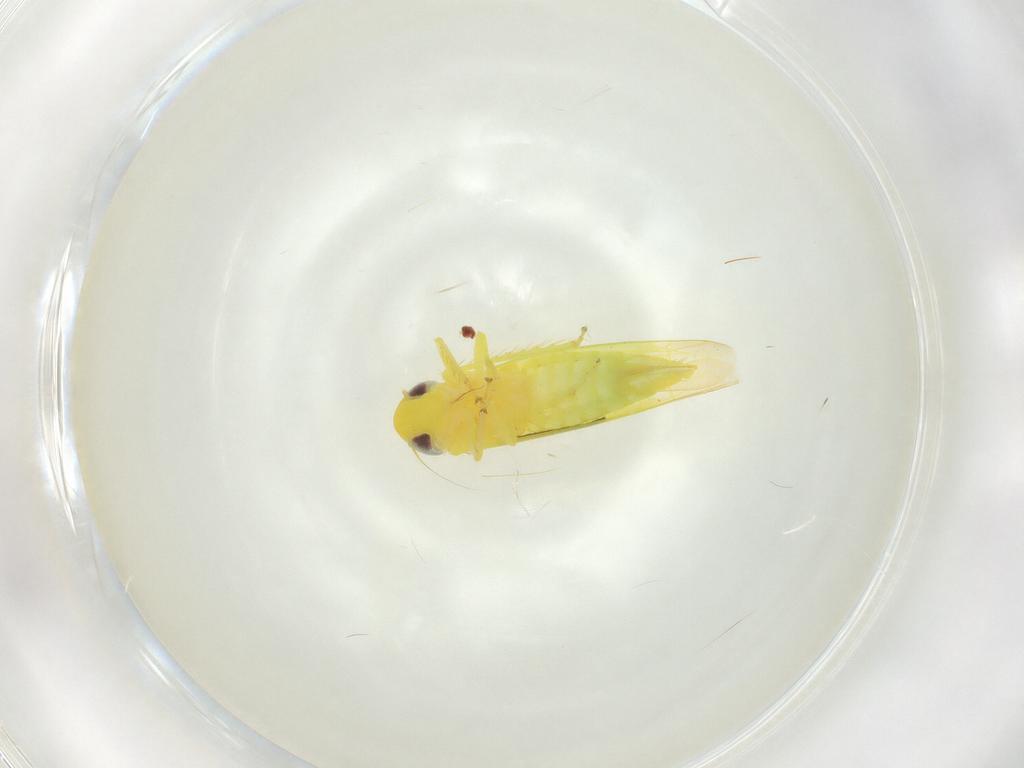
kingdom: Animalia
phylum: Arthropoda
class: Insecta
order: Hemiptera
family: Cicadellidae
